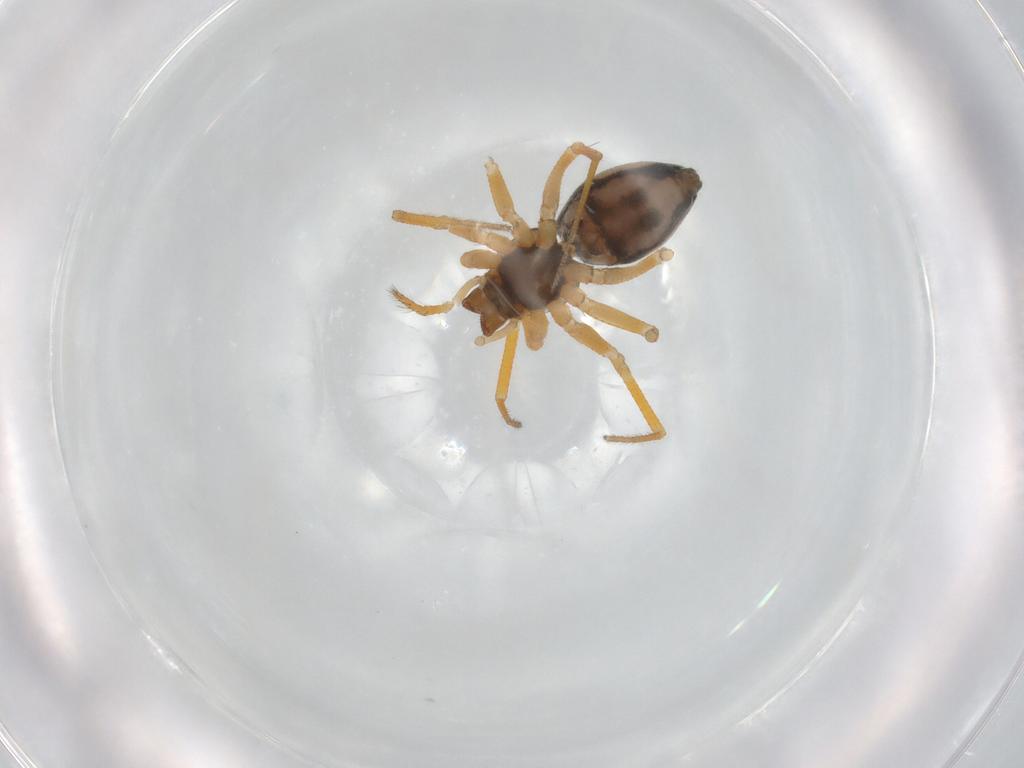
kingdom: Animalia
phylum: Arthropoda
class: Arachnida
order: Araneae
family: Linyphiidae
